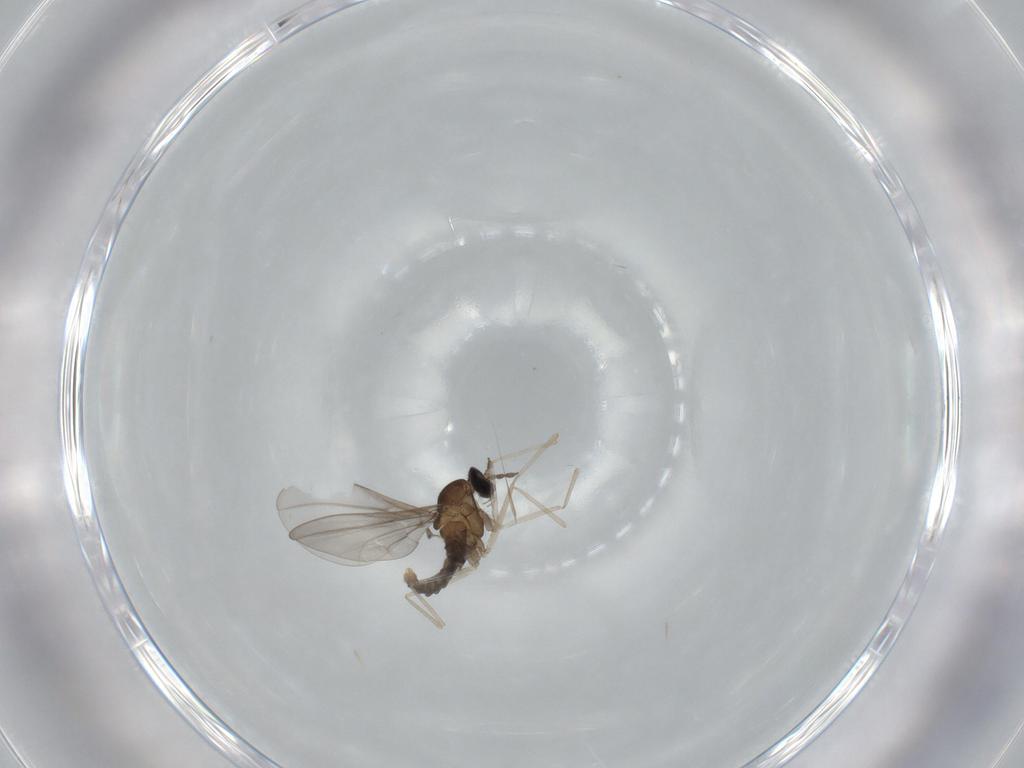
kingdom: Animalia
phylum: Arthropoda
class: Insecta
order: Diptera
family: Cecidomyiidae
